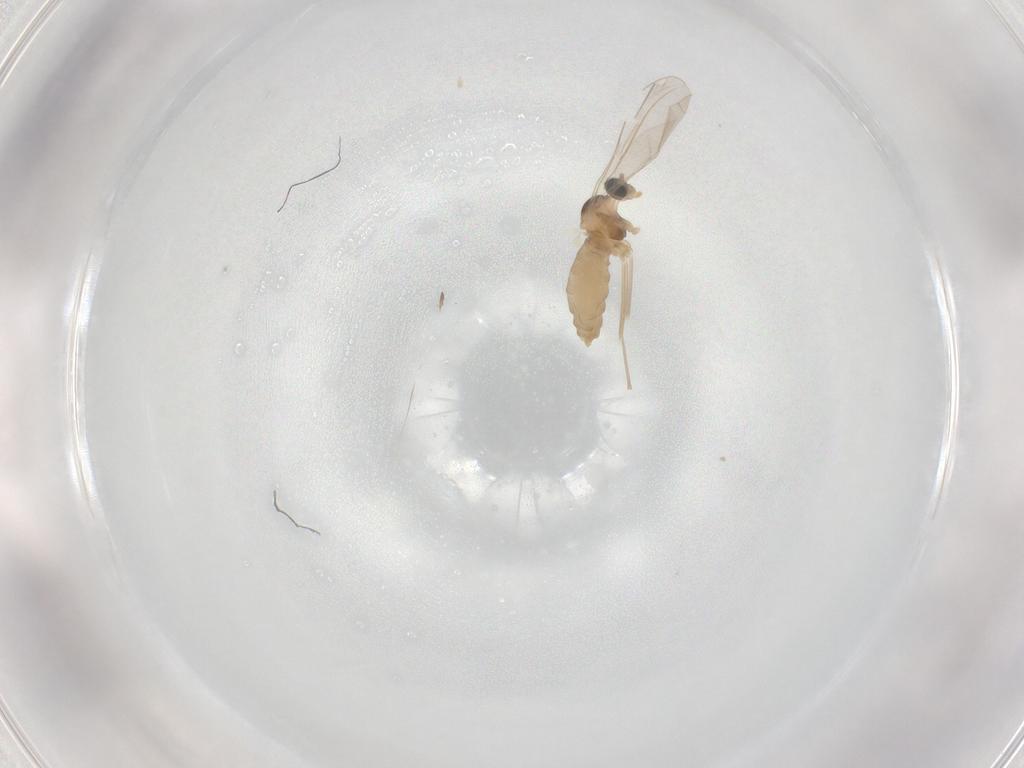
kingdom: Animalia
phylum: Arthropoda
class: Insecta
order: Diptera
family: Cecidomyiidae
